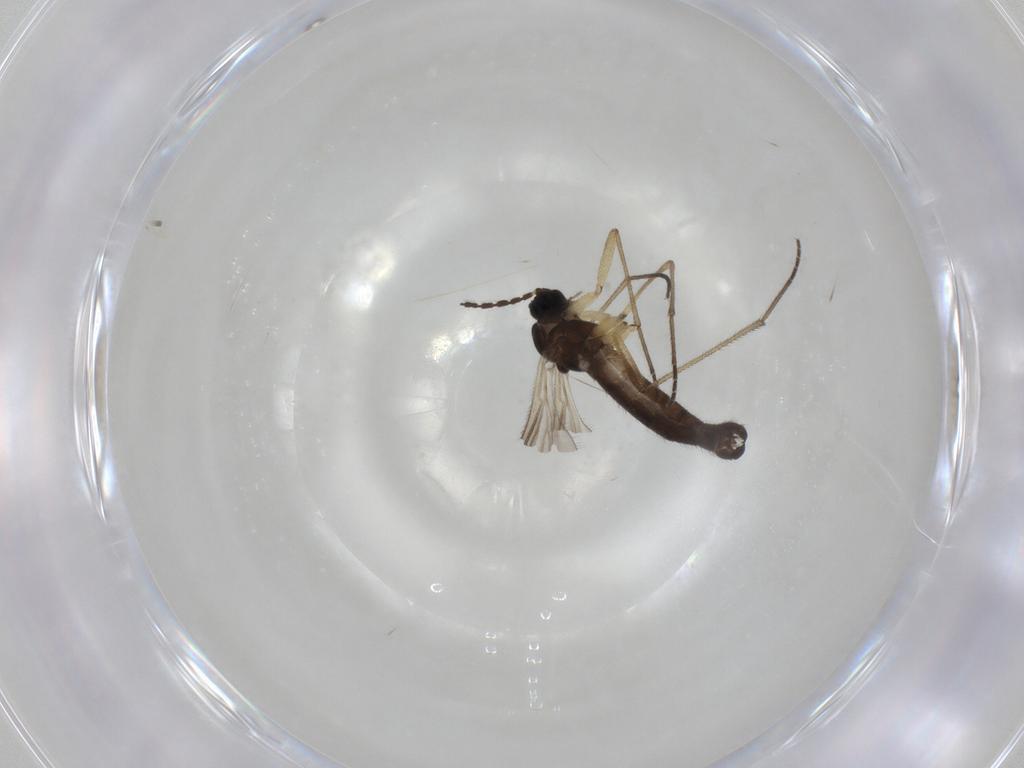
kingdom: Animalia
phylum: Arthropoda
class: Insecta
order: Diptera
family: Sciaridae
